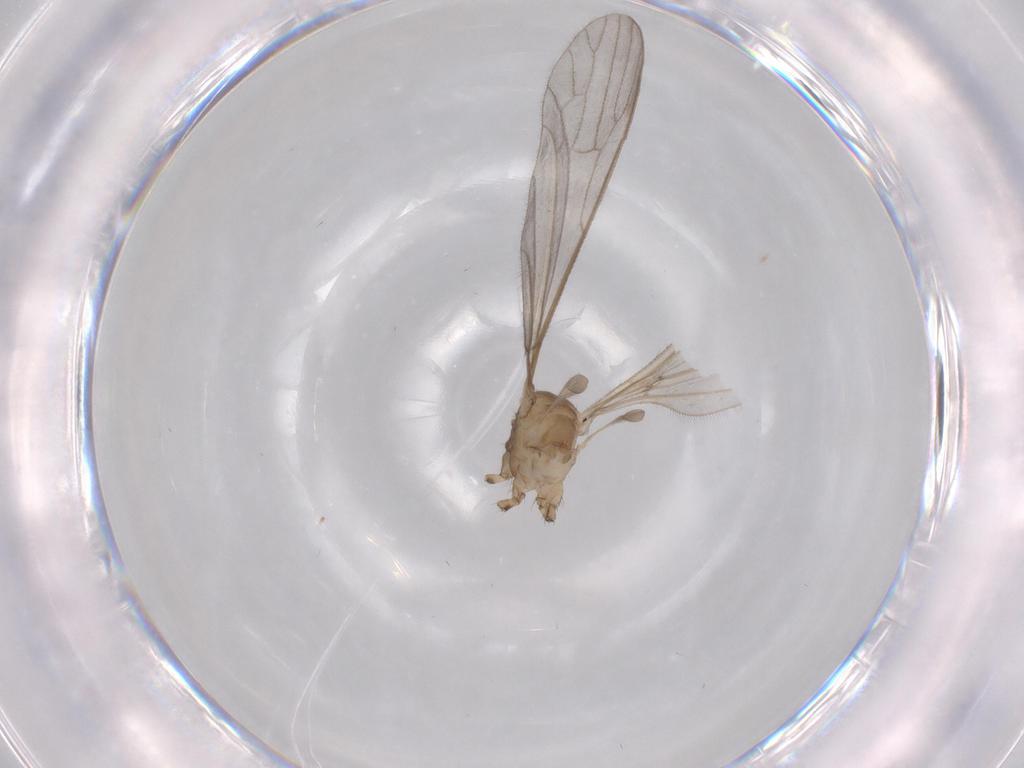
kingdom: Animalia
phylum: Arthropoda
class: Insecta
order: Diptera
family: Limoniidae
